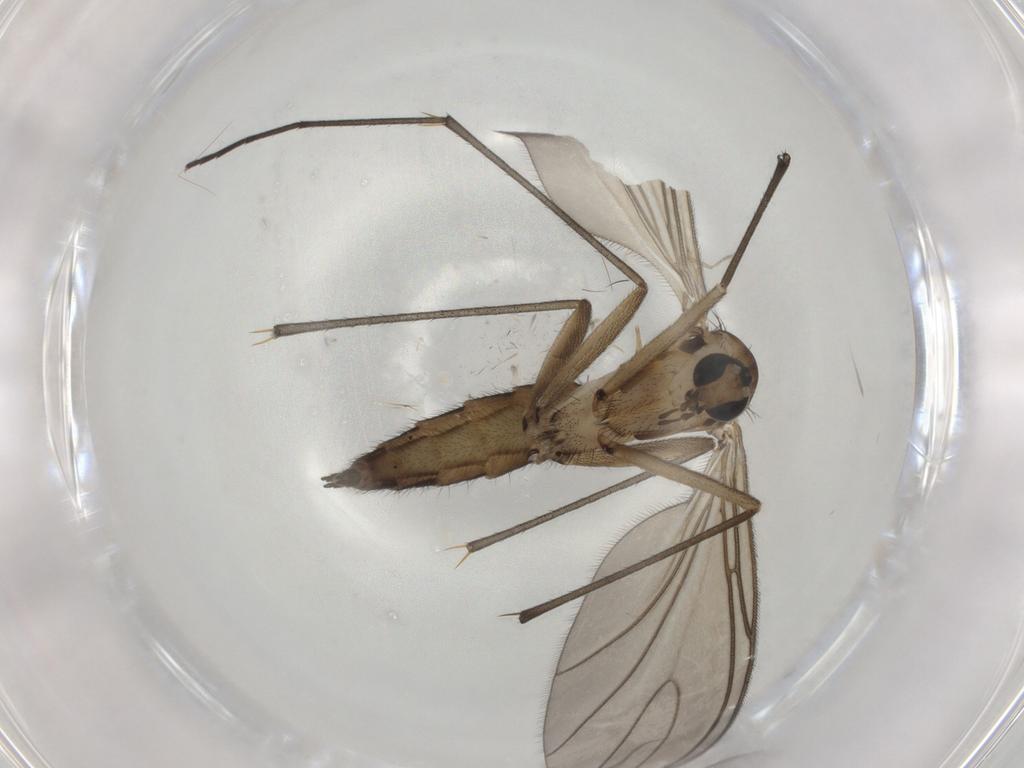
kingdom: Animalia
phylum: Arthropoda
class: Insecta
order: Diptera
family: Sciaridae
